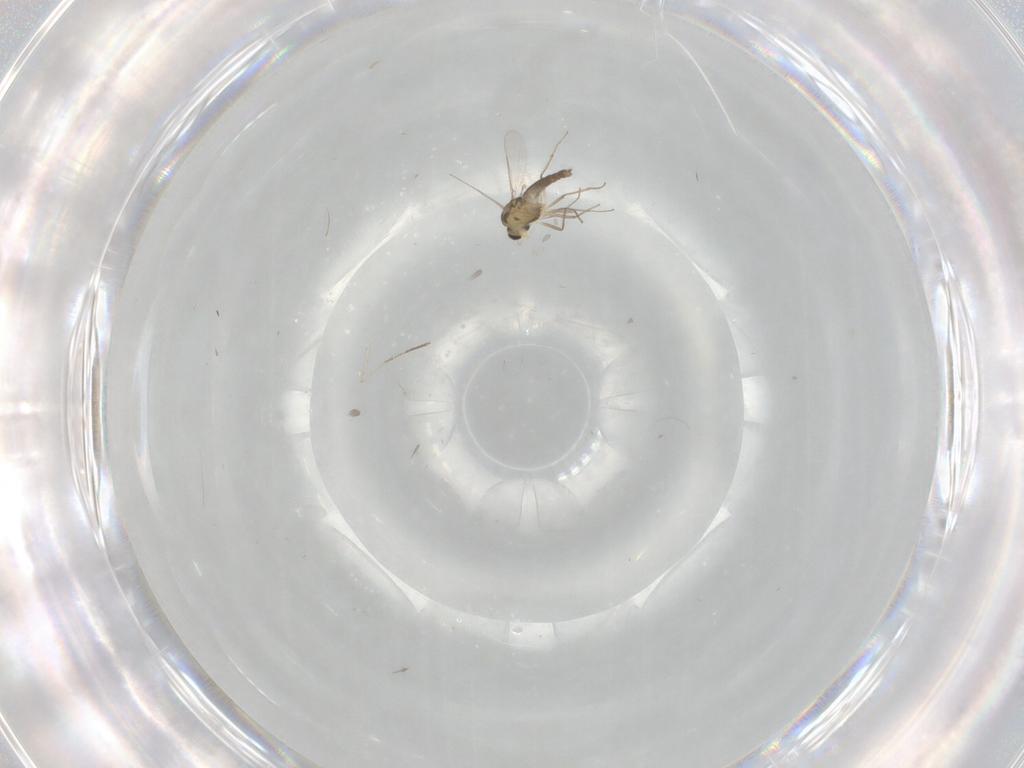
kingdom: Animalia
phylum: Arthropoda
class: Insecta
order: Diptera
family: Chironomidae
